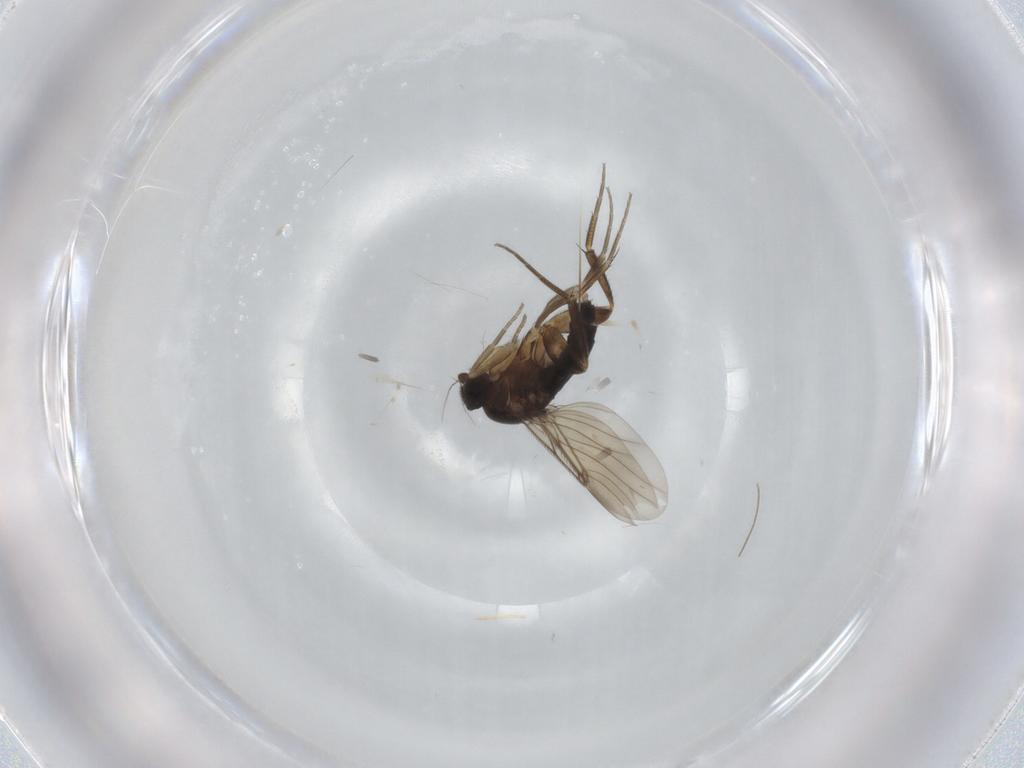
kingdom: Animalia
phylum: Arthropoda
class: Insecta
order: Diptera
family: Phoridae
